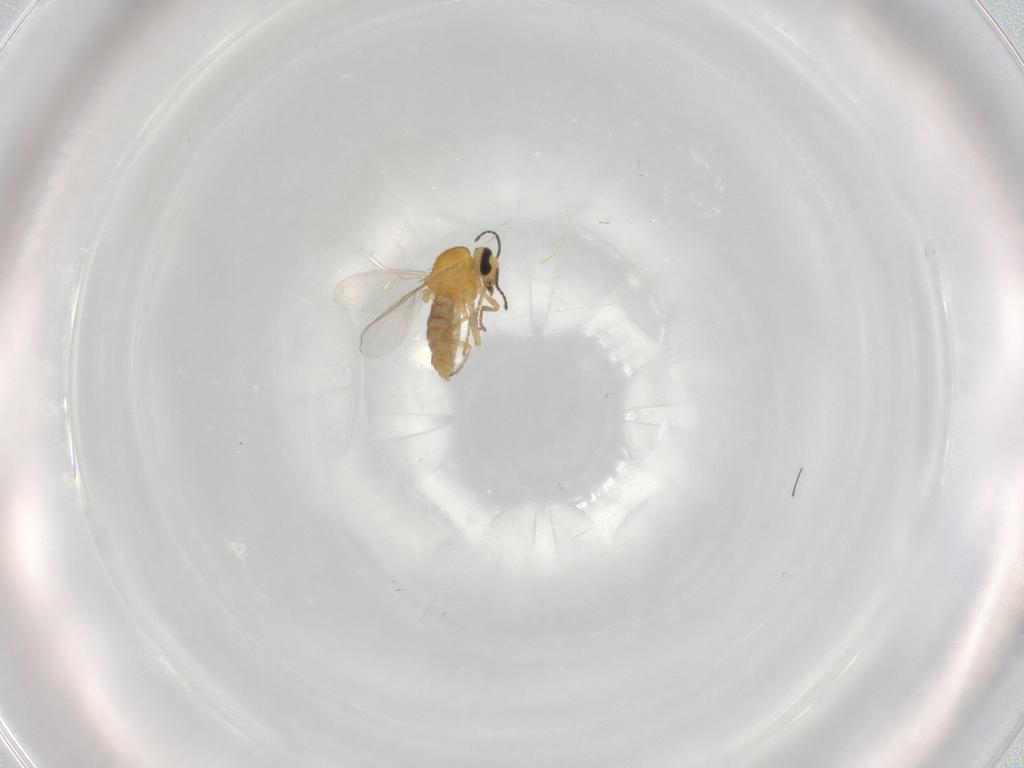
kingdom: Animalia
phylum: Arthropoda
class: Insecta
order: Diptera
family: Ceratopogonidae
